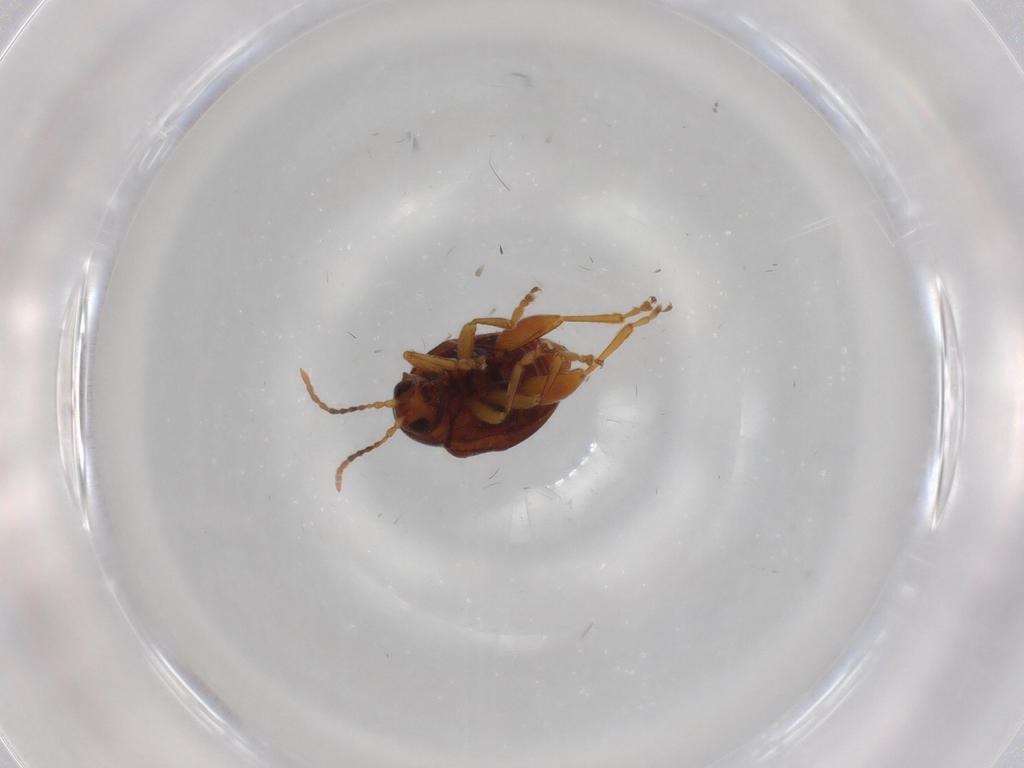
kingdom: Animalia
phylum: Arthropoda
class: Insecta
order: Coleoptera
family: Chrysomelidae
